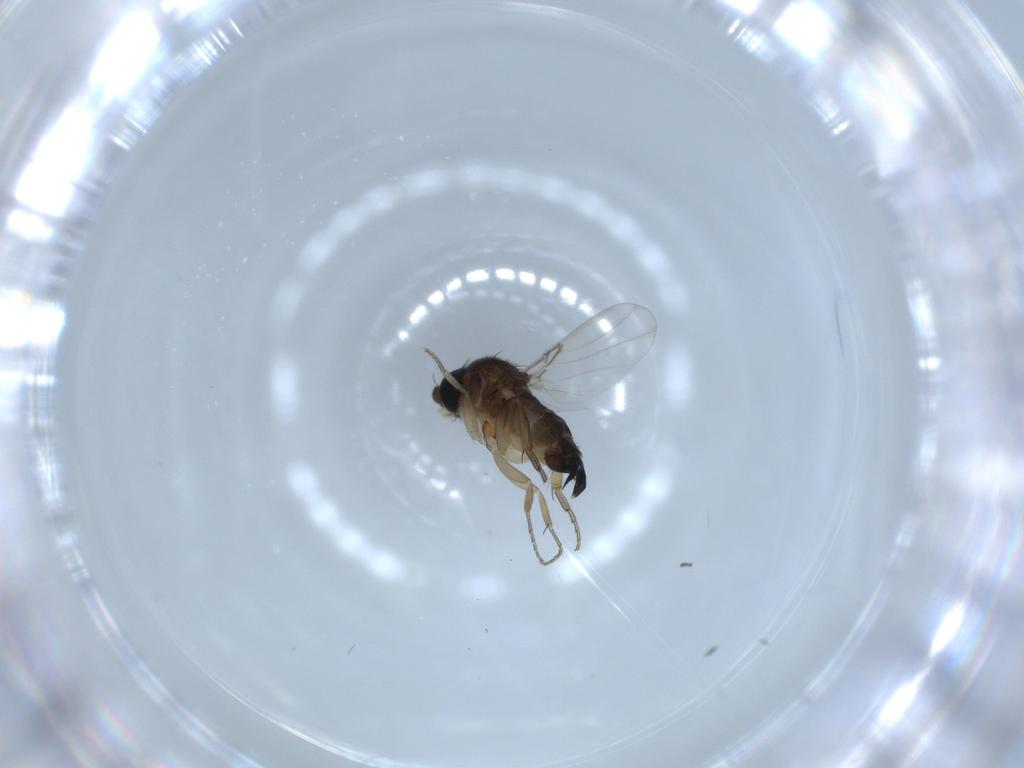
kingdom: Animalia
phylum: Arthropoda
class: Insecta
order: Diptera
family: Phoridae
